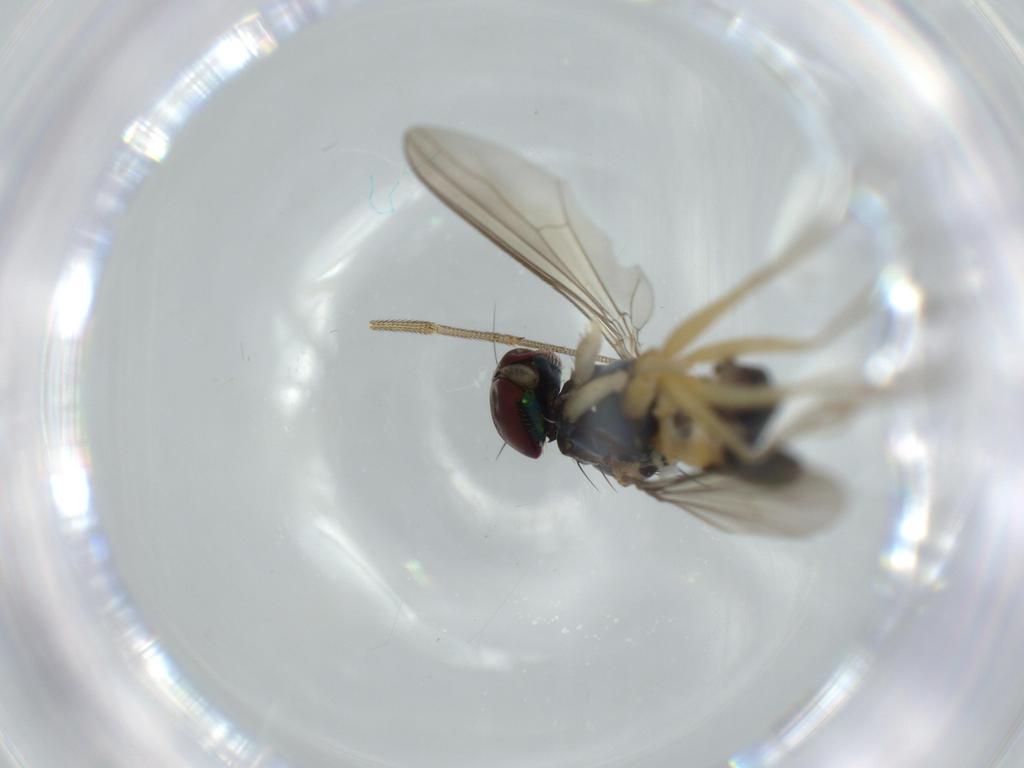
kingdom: Animalia
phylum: Arthropoda
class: Insecta
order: Diptera
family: Dolichopodidae
